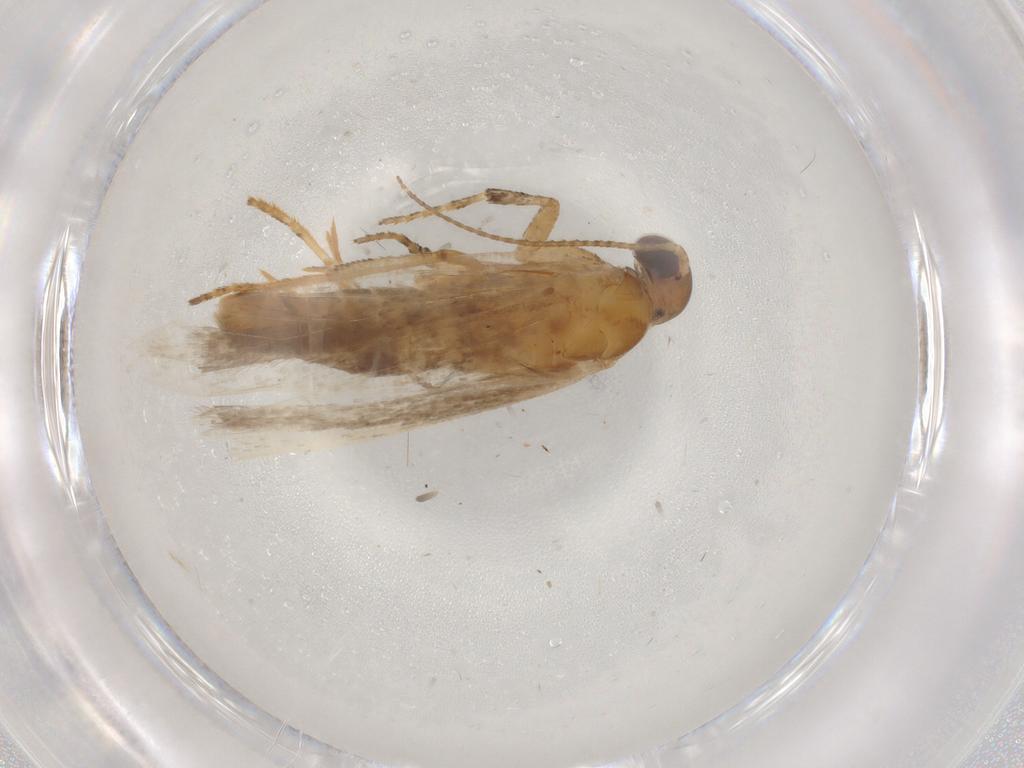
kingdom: Animalia
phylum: Arthropoda
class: Insecta
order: Lepidoptera
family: Gelechiidae
